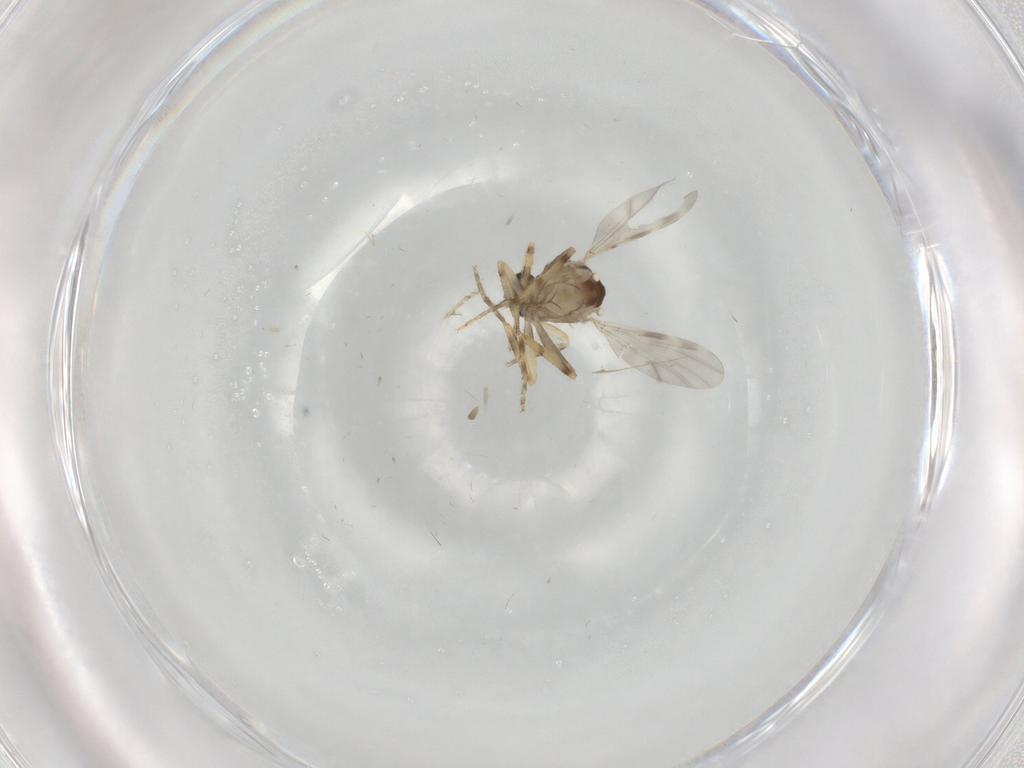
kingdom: Animalia
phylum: Arthropoda
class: Insecta
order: Diptera
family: Ceratopogonidae
